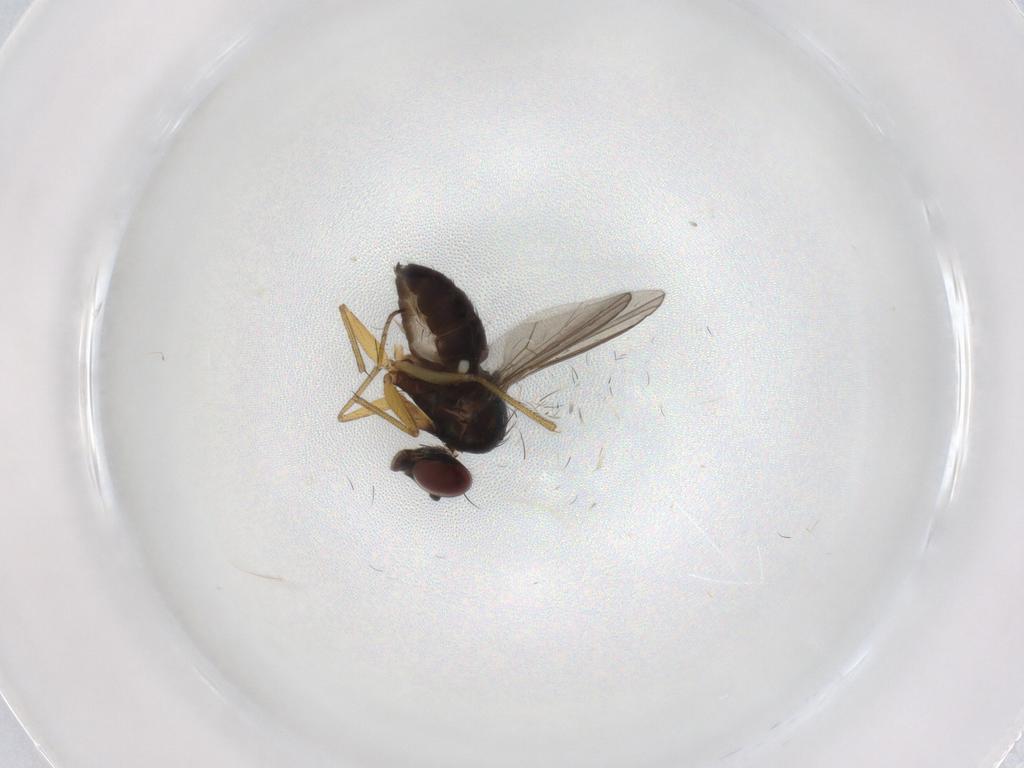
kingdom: Animalia
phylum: Arthropoda
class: Insecta
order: Diptera
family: Dolichopodidae
